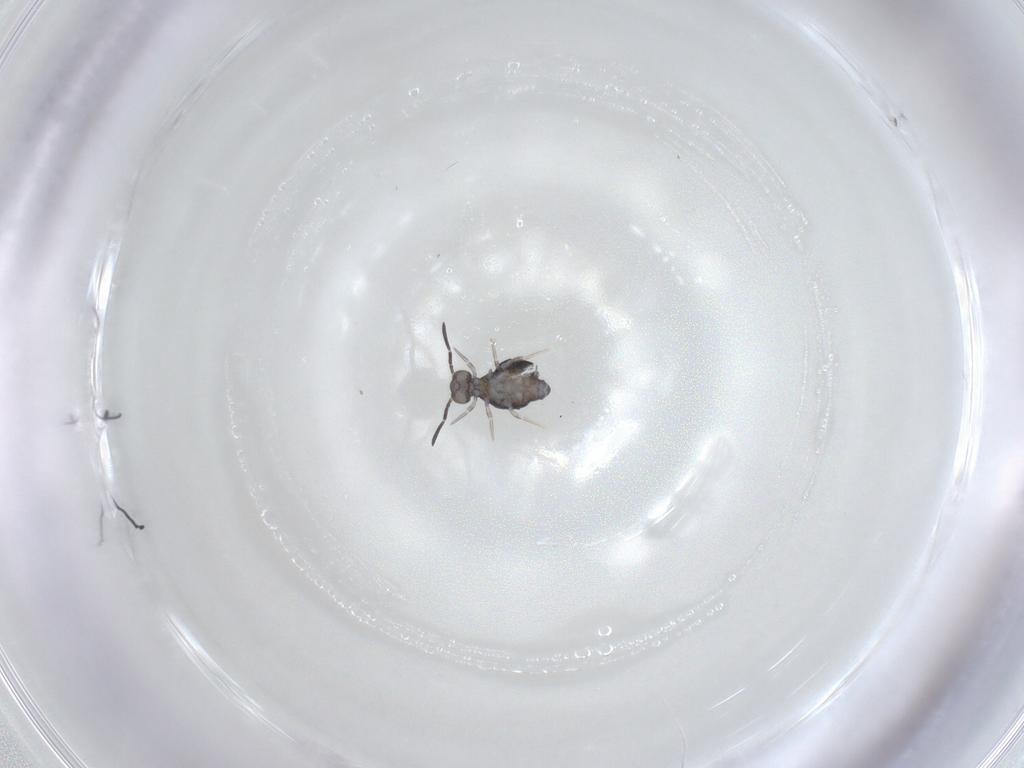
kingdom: Animalia
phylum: Arthropoda
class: Collembola
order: Symphypleona
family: Katiannidae
